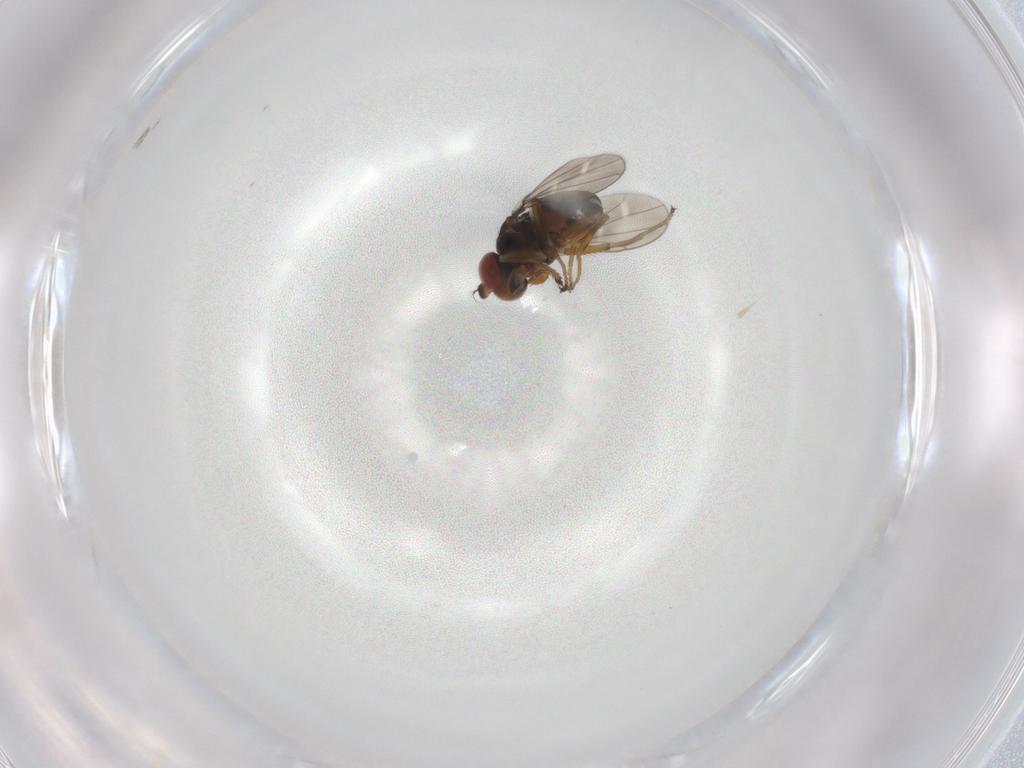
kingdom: Animalia
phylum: Arthropoda
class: Insecta
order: Diptera
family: Ephydridae
